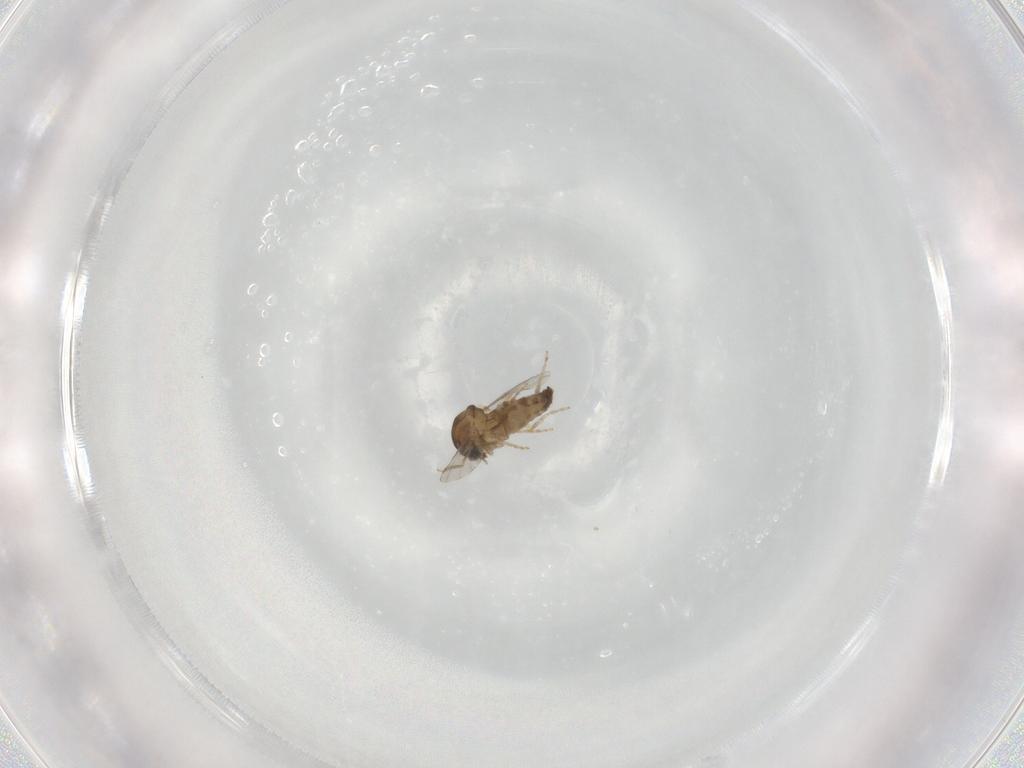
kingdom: Animalia
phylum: Arthropoda
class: Insecta
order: Diptera
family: Ceratopogonidae
